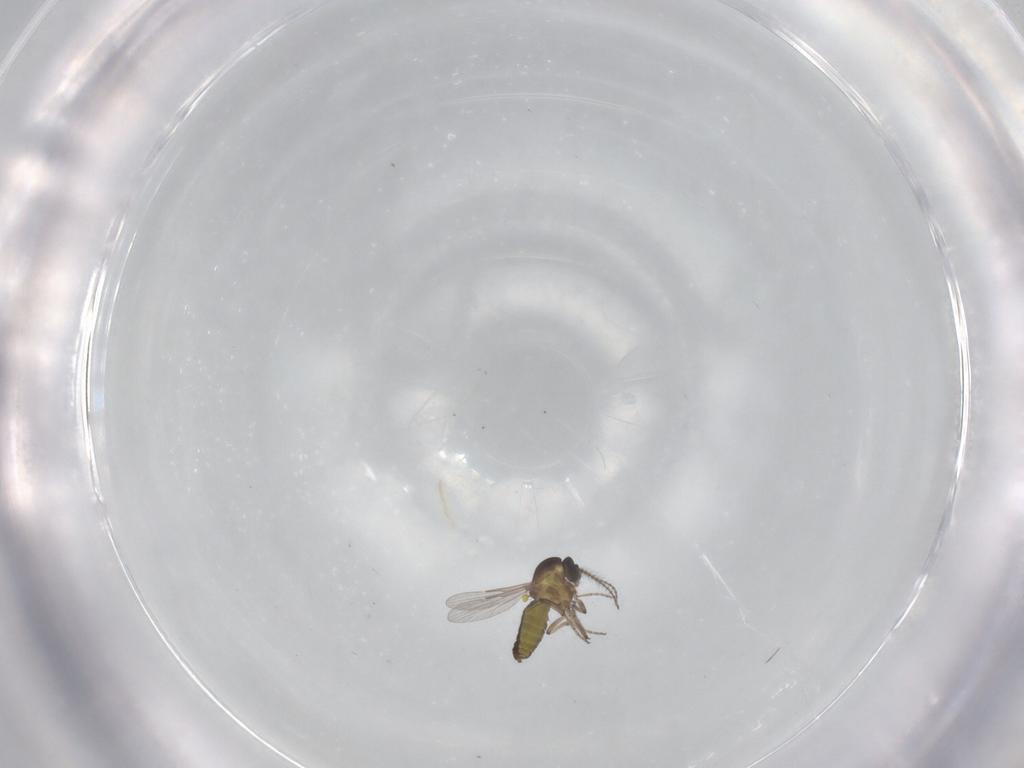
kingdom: Animalia
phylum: Arthropoda
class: Insecta
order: Diptera
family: Ceratopogonidae
